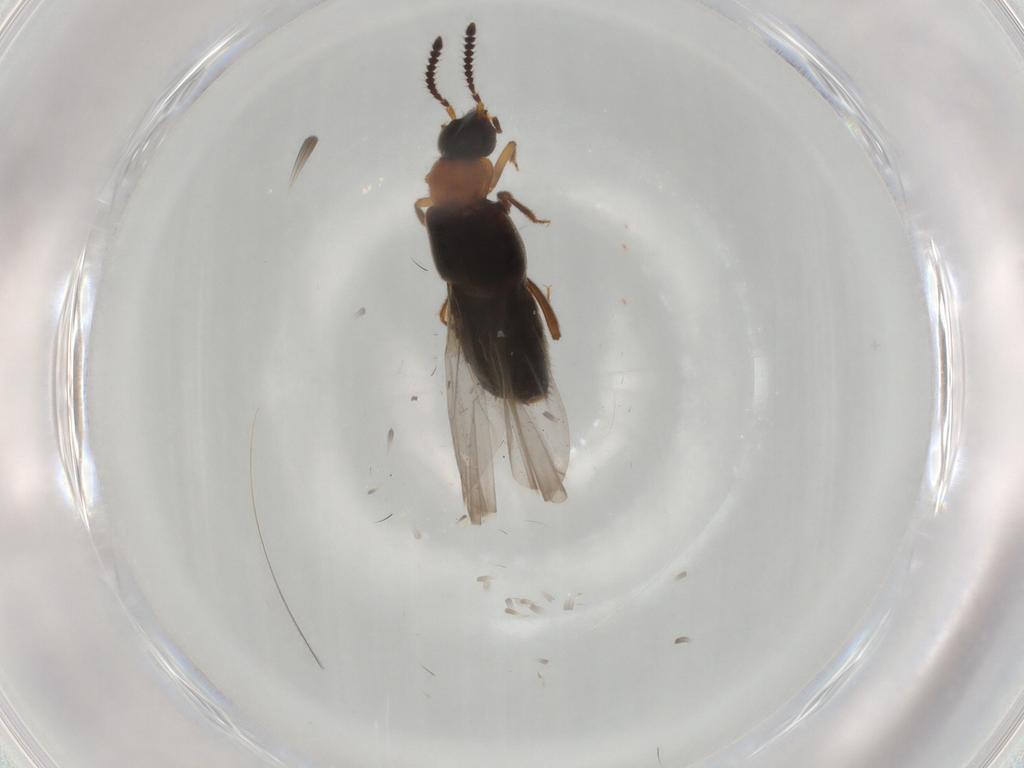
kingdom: Animalia
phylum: Arthropoda
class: Insecta
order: Coleoptera
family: Staphylinidae
